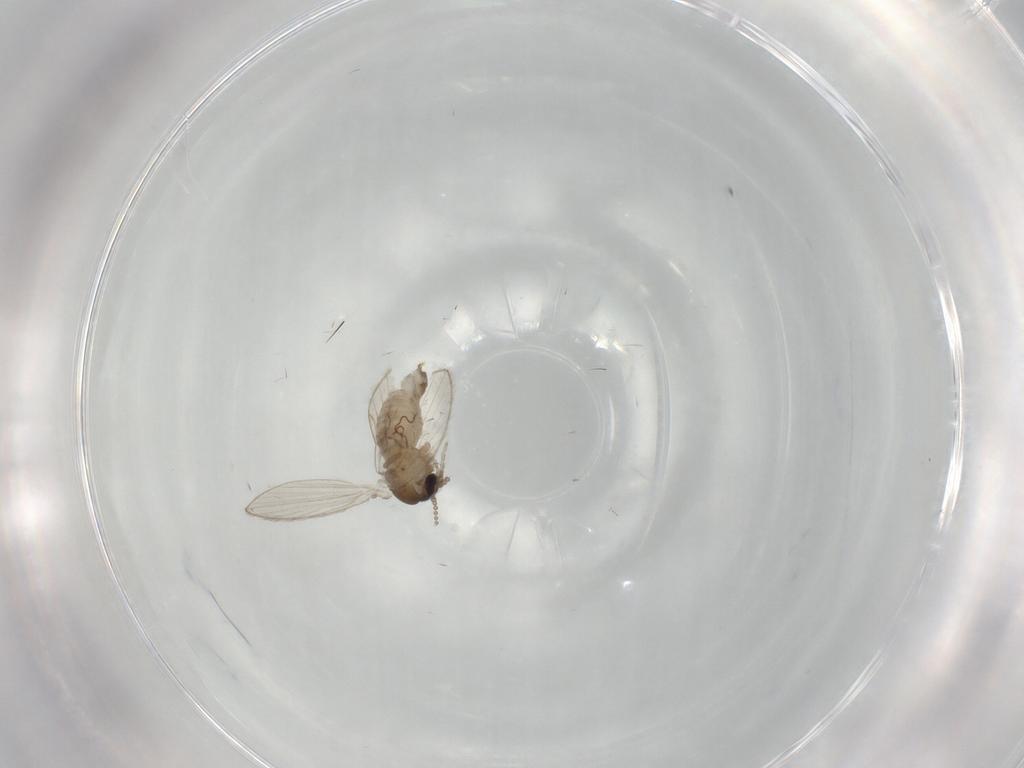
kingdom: Animalia
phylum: Arthropoda
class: Insecta
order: Diptera
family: Psychodidae
